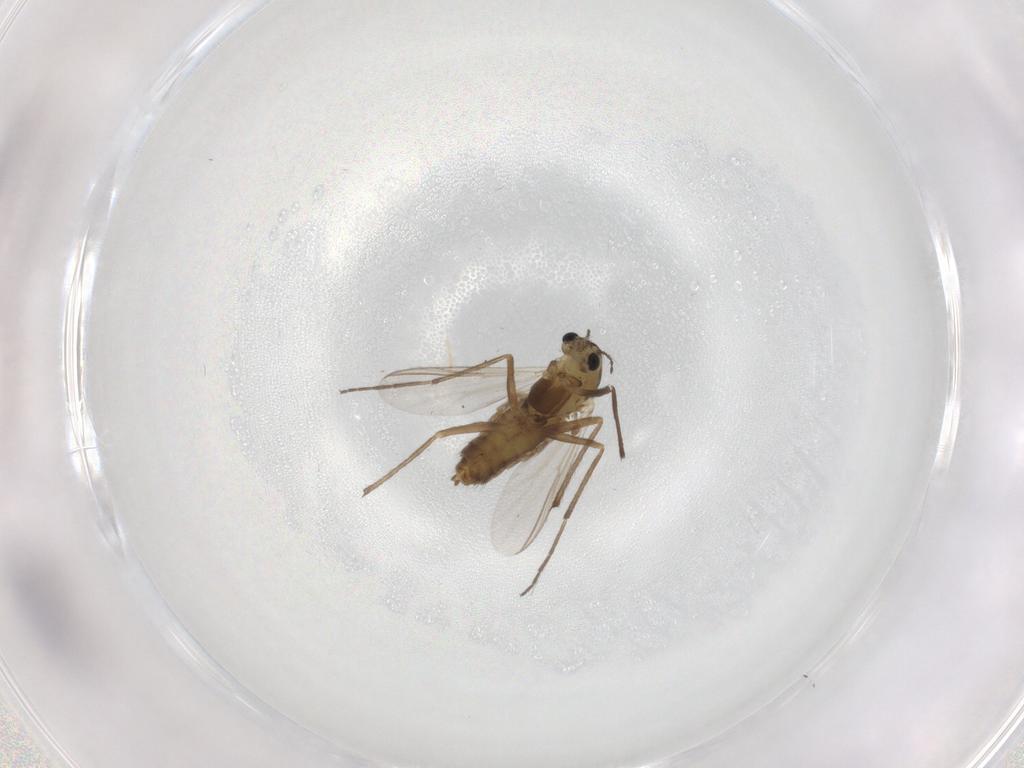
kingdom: Animalia
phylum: Arthropoda
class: Insecta
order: Diptera
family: Chironomidae
